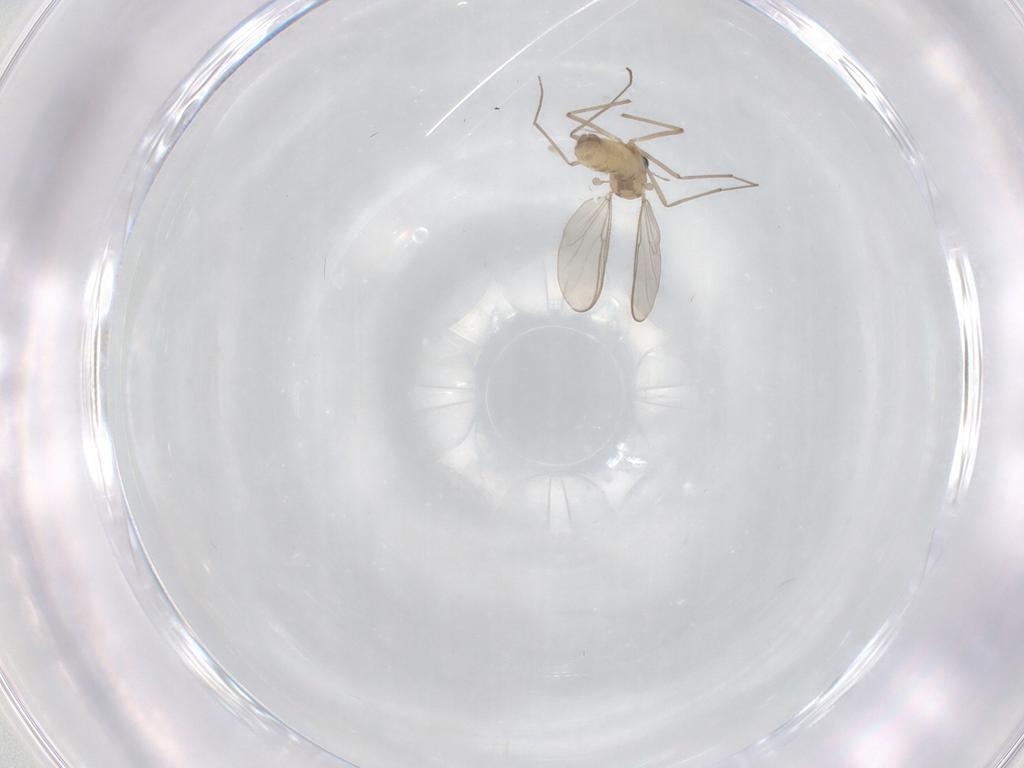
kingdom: Animalia
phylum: Arthropoda
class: Insecta
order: Diptera
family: Chironomidae
